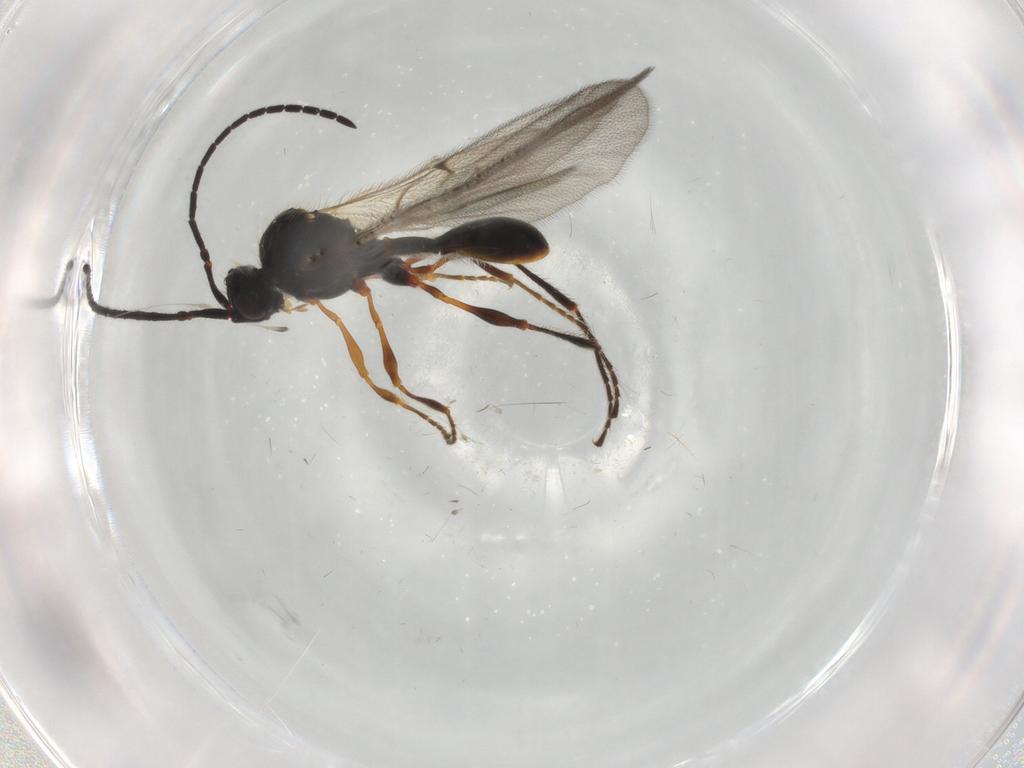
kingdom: Animalia
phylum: Arthropoda
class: Insecta
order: Hymenoptera
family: Diapriidae
